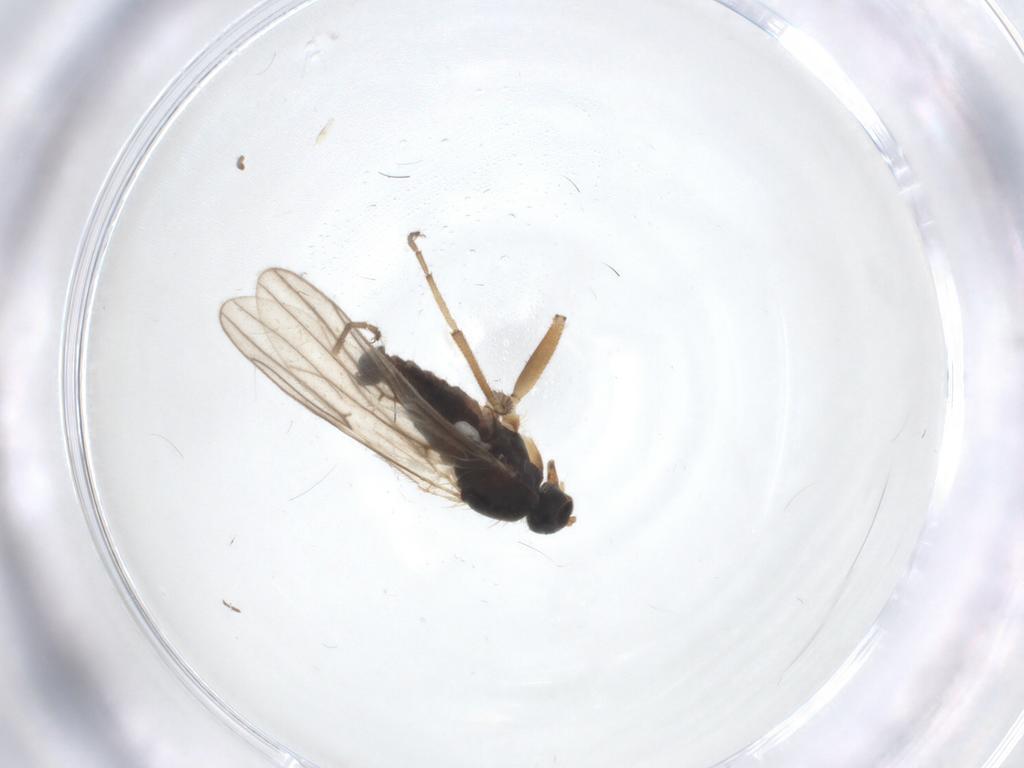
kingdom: Animalia
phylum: Arthropoda
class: Insecta
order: Diptera
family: Hybotidae
